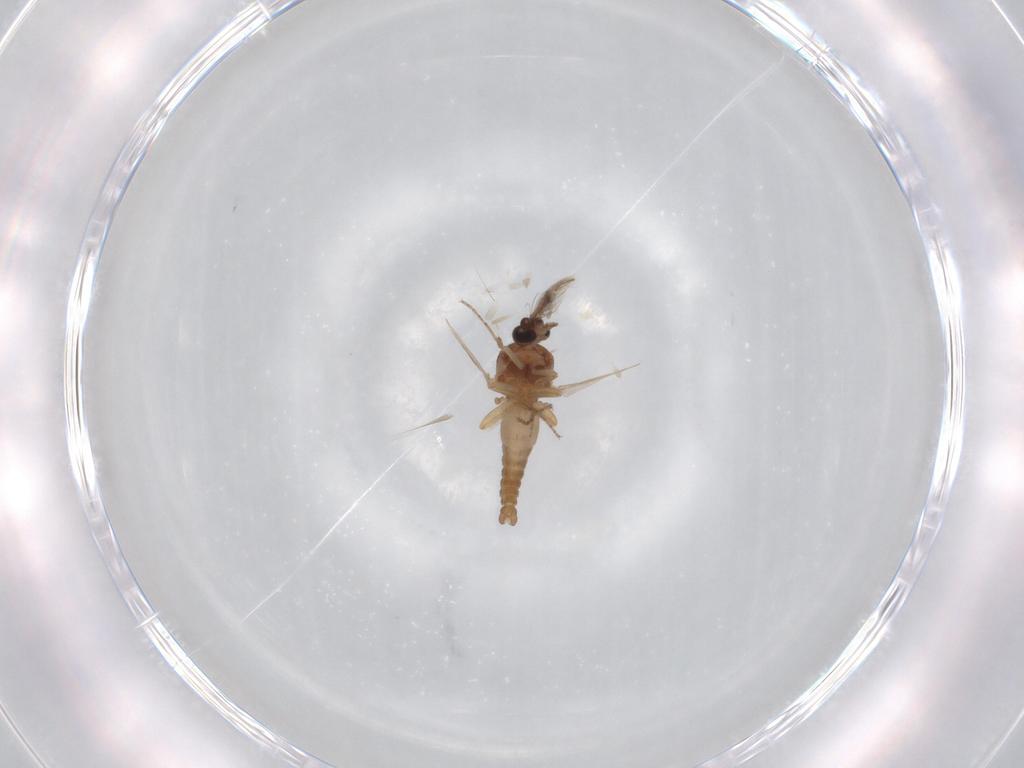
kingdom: Animalia
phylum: Arthropoda
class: Insecta
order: Diptera
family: Ceratopogonidae
